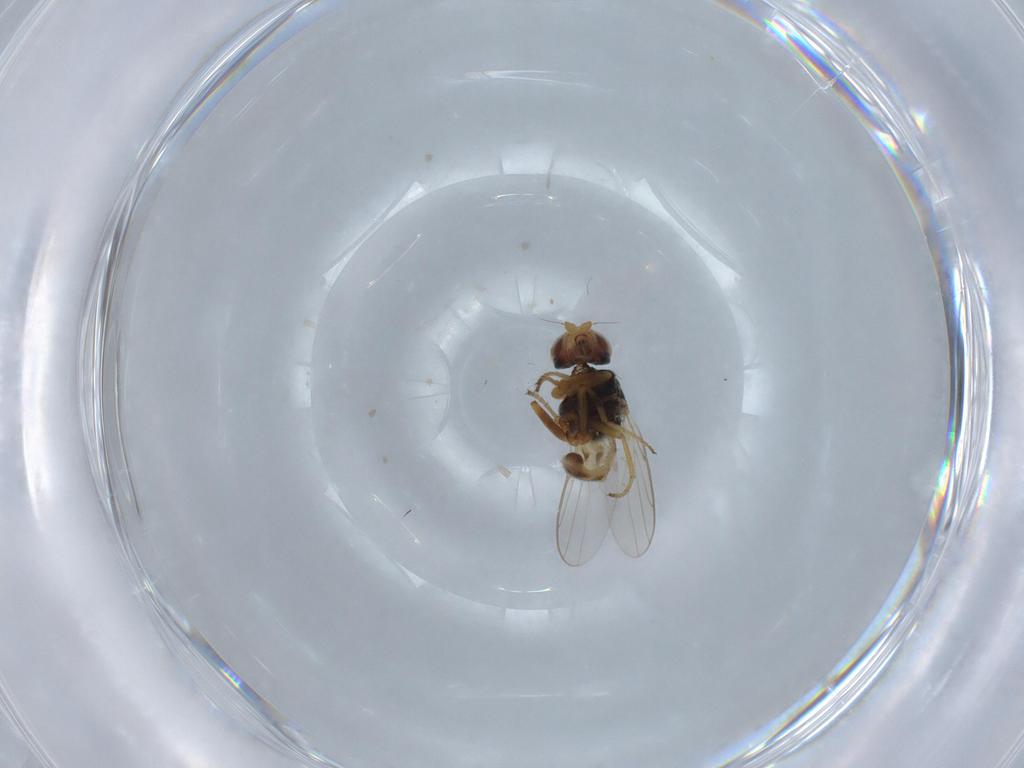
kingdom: Animalia
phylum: Arthropoda
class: Insecta
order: Diptera
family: Chloropidae
